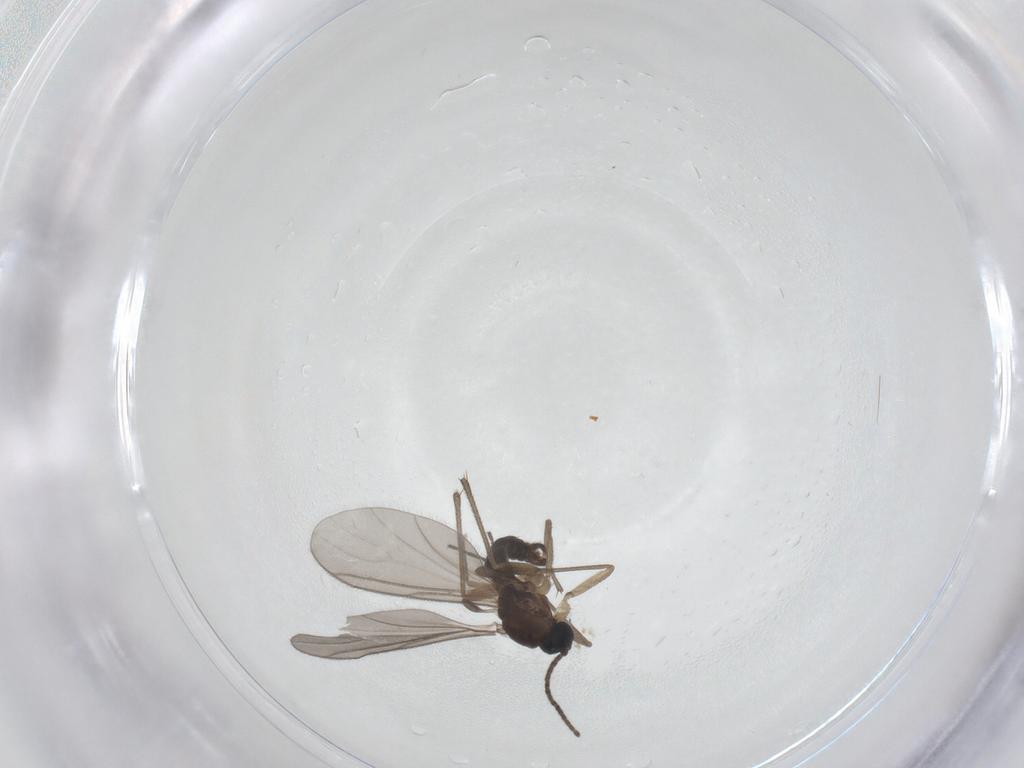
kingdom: Animalia
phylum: Arthropoda
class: Insecta
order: Diptera
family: Sciaridae
